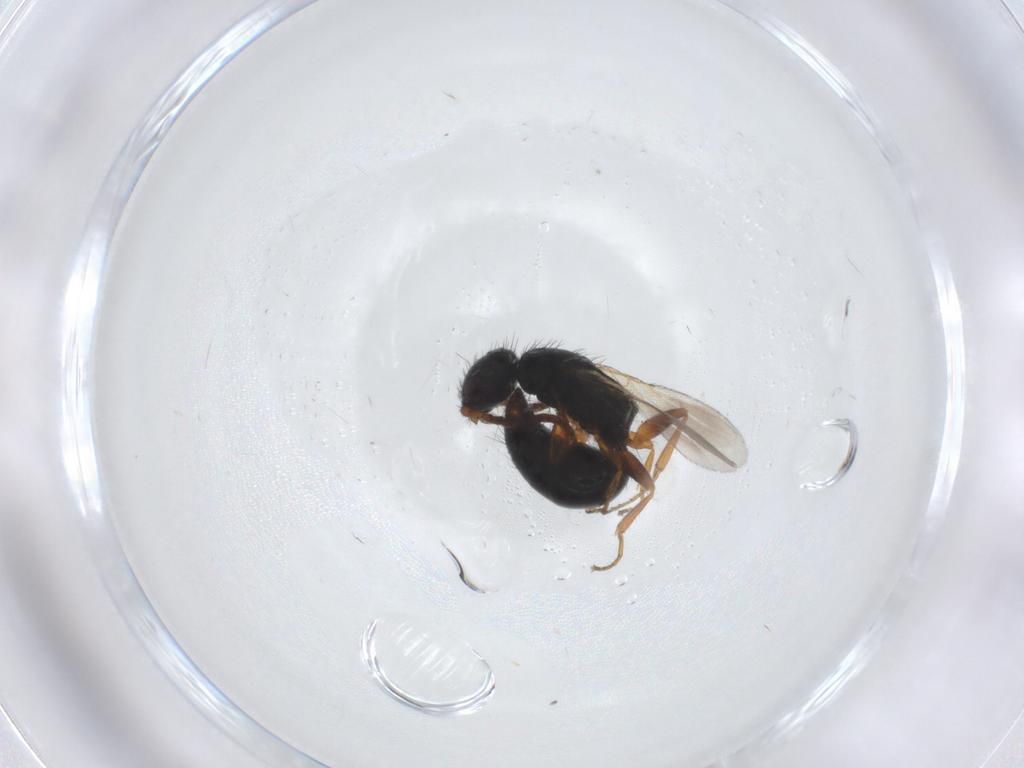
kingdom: Animalia
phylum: Arthropoda
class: Insecta
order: Hymenoptera
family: Bethylidae
